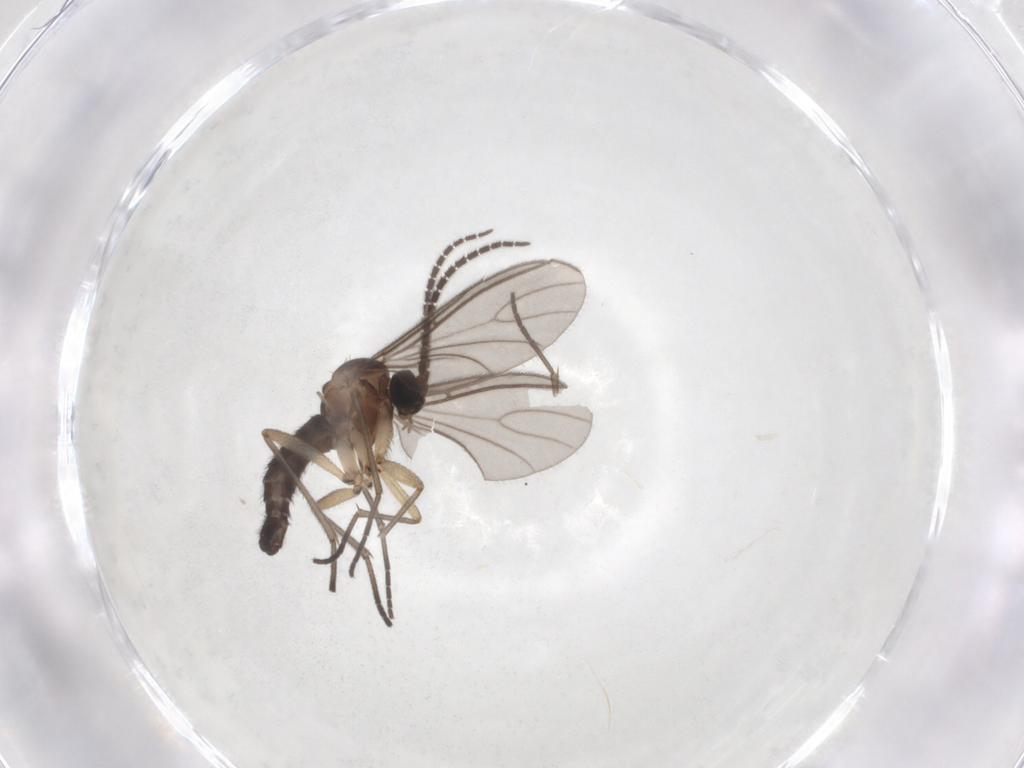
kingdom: Animalia
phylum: Arthropoda
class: Insecta
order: Diptera
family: Sciaridae
